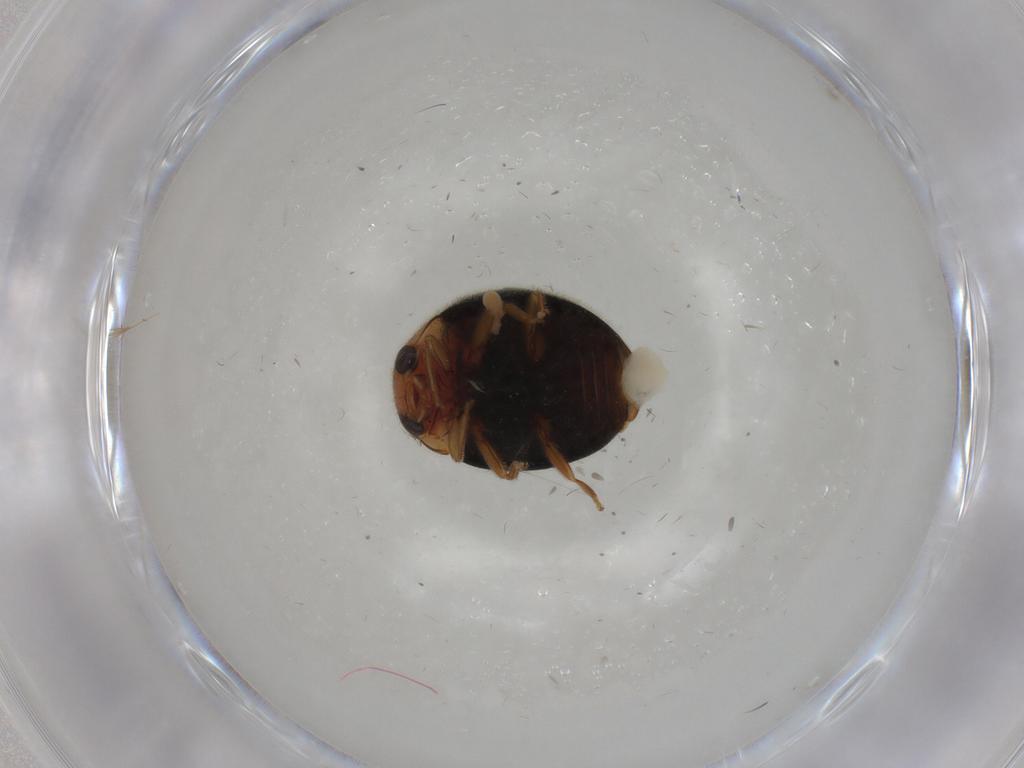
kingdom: Animalia
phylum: Arthropoda
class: Insecta
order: Coleoptera
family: Coccinellidae
